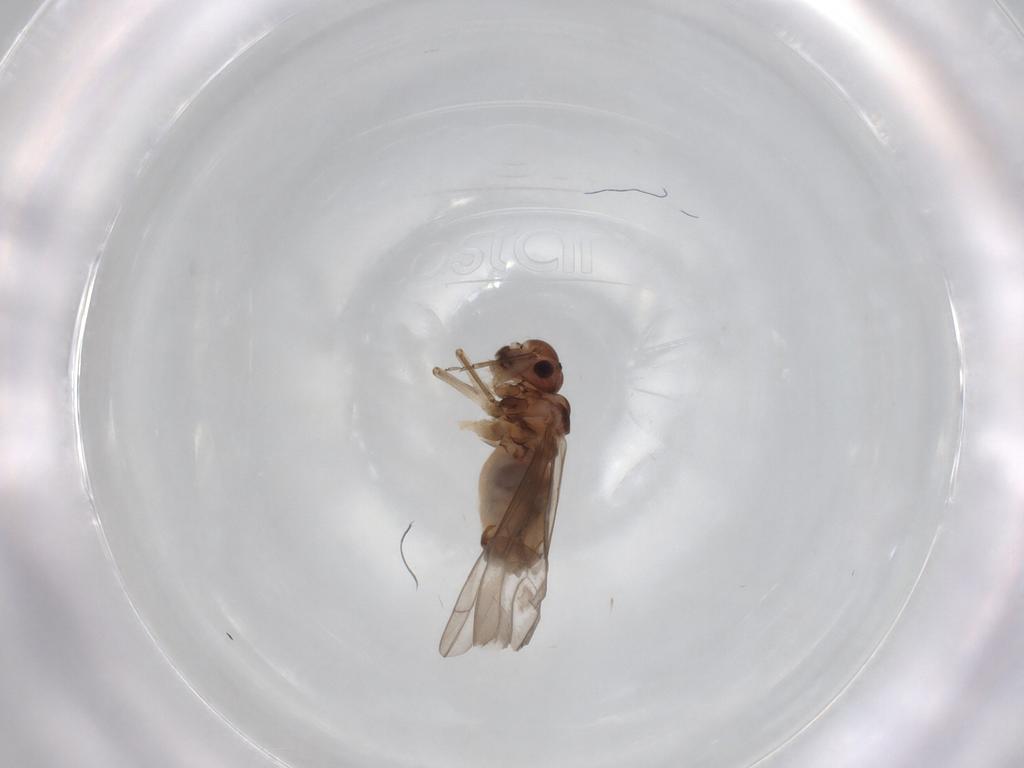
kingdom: Animalia
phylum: Arthropoda
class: Insecta
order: Psocodea
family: Peripsocidae
